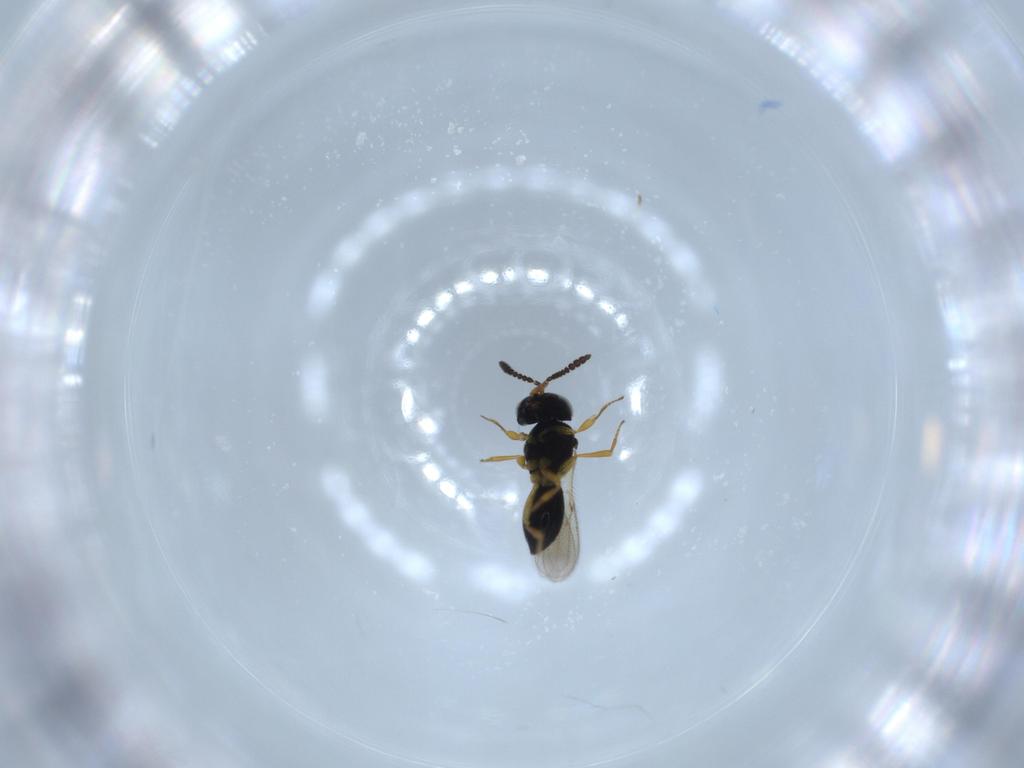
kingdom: Animalia
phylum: Arthropoda
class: Insecta
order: Hymenoptera
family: Scelionidae
